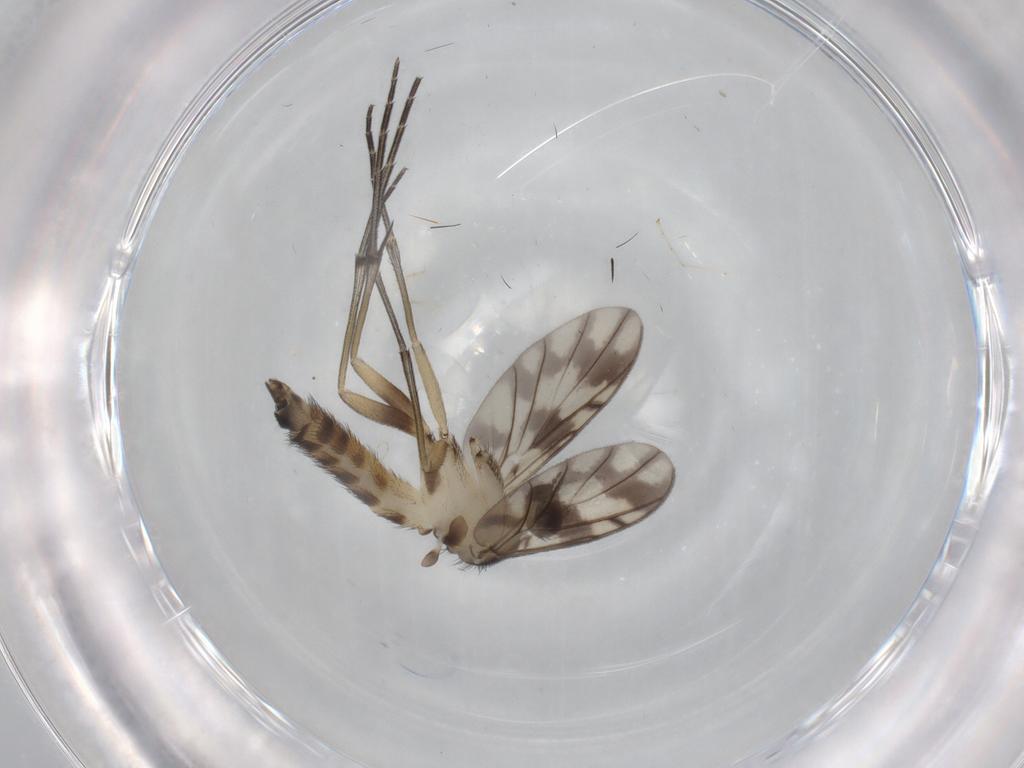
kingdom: Animalia
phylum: Arthropoda
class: Insecta
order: Diptera
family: Keroplatidae
